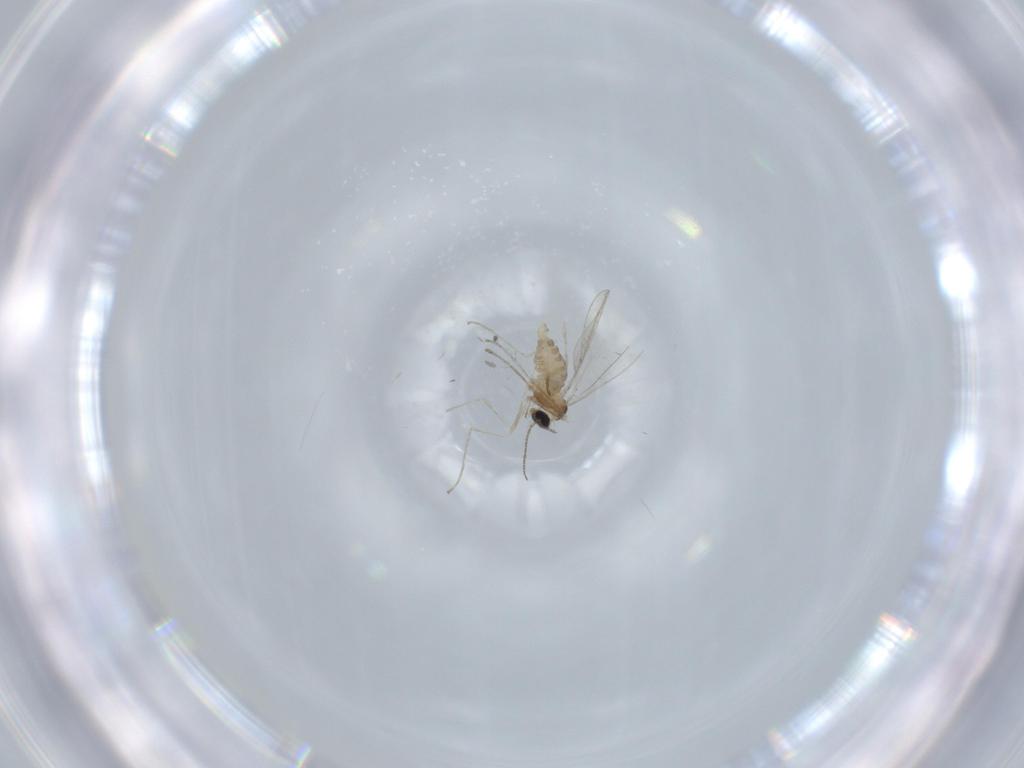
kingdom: Animalia
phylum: Arthropoda
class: Insecta
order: Diptera
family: Cecidomyiidae
